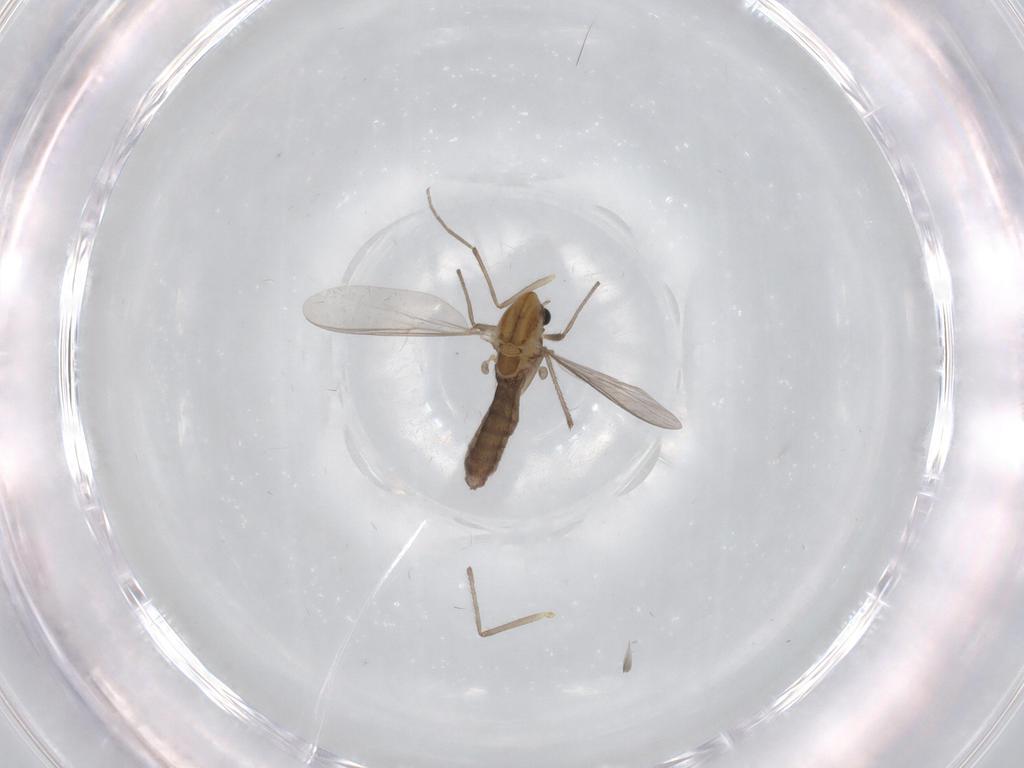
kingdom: Animalia
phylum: Arthropoda
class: Insecta
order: Diptera
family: Chironomidae
